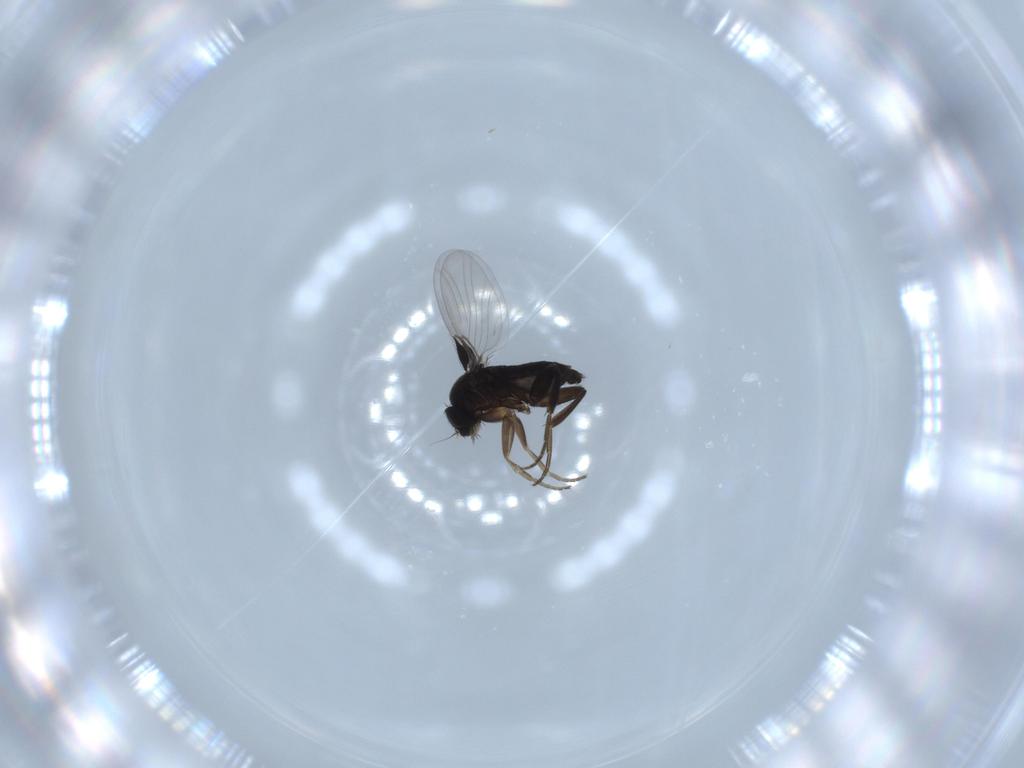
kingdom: Animalia
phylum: Arthropoda
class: Insecta
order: Diptera
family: Phoridae
